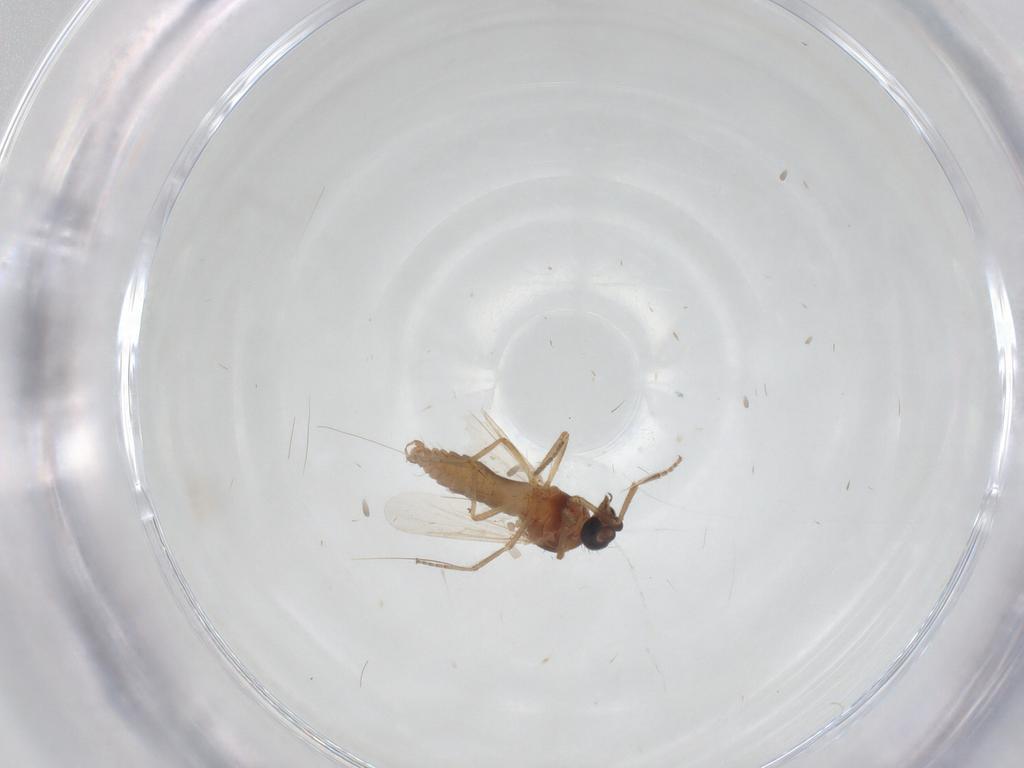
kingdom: Animalia
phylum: Arthropoda
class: Insecta
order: Diptera
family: Cecidomyiidae
